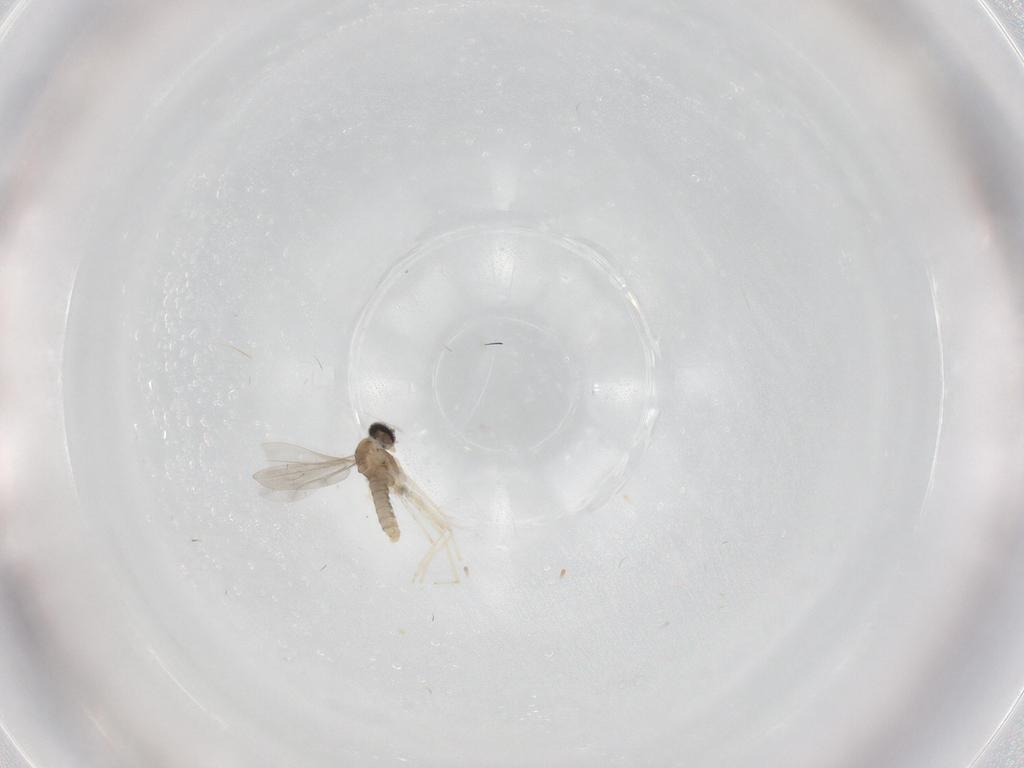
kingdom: Animalia
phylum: Arthropoda
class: Insecta
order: Diptera
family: Cecidomyiidae
